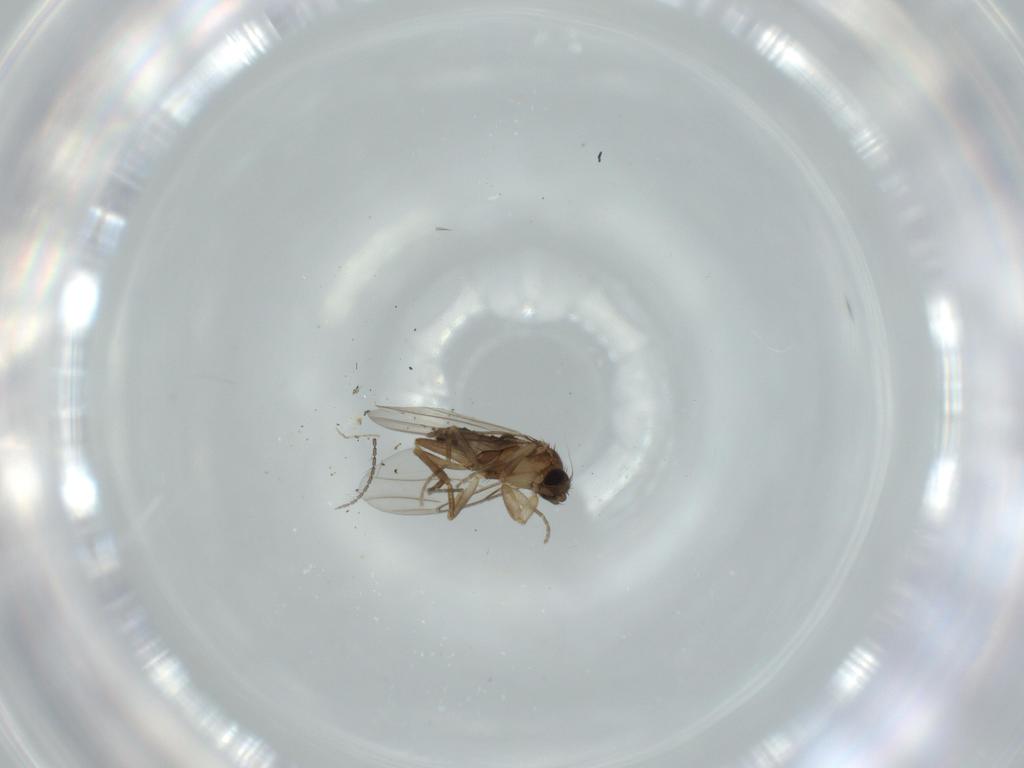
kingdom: Animalia
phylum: Arthropoda
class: Insecta
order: Diptera
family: Phoridae
